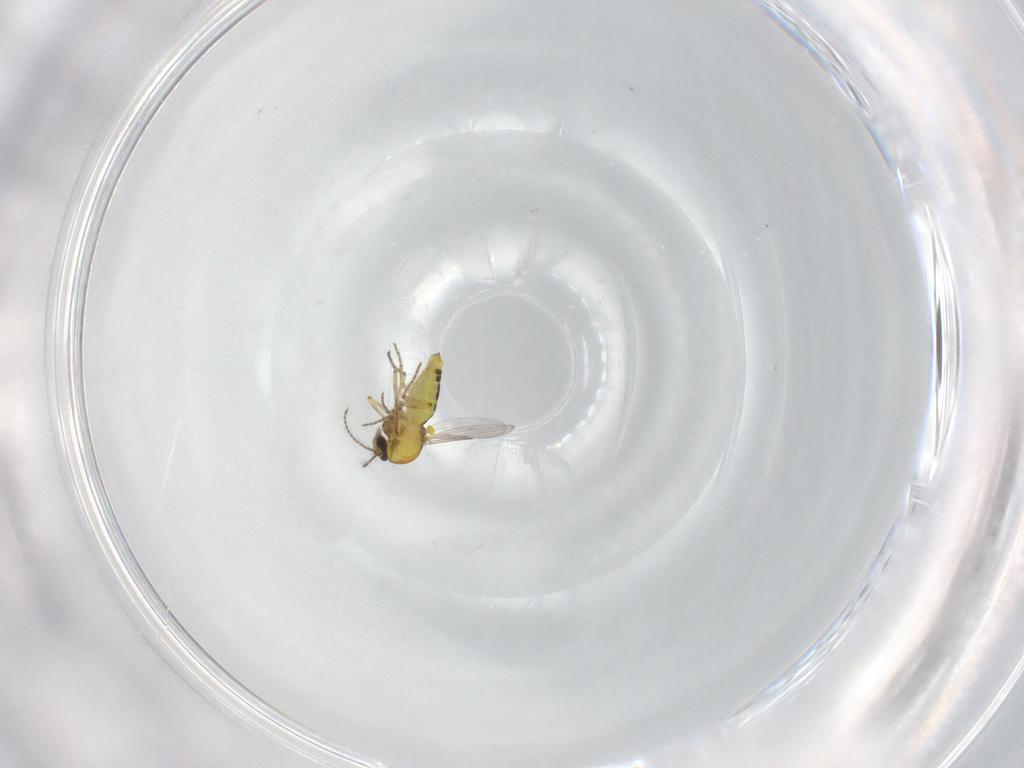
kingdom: Animalia
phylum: Arthropoda
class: Insecta
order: Diptera
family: Phoridae
